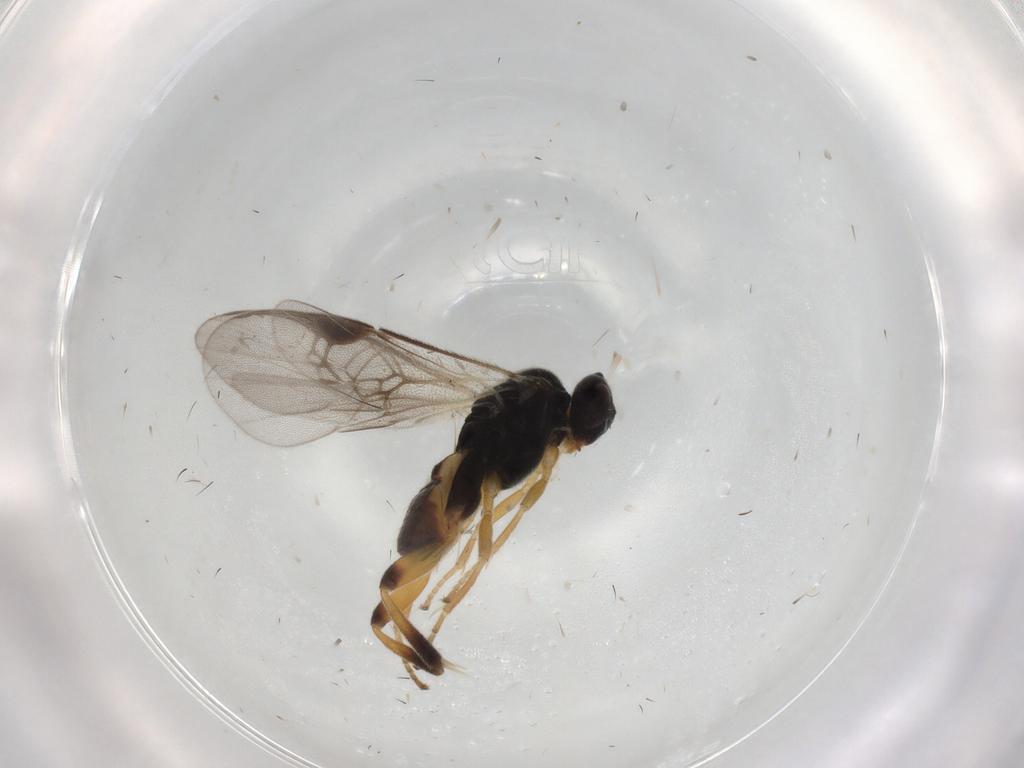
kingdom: Animalia
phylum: Arthropoda
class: Insecta
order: Hymenoptera
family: Braconidae
